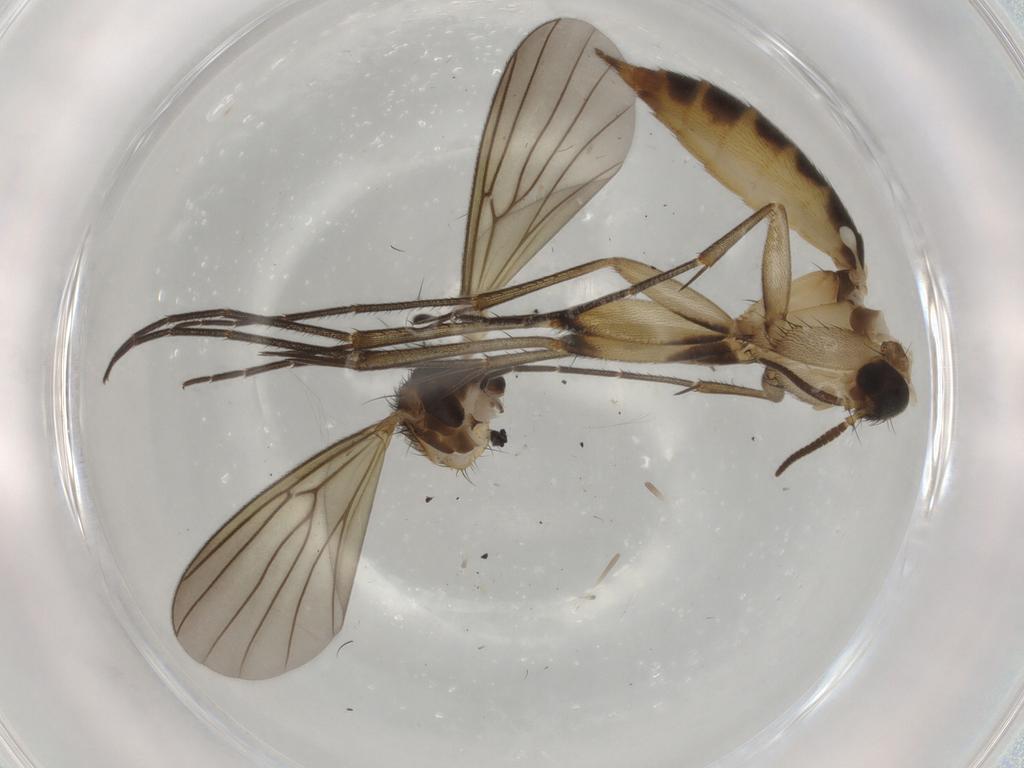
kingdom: Animalia
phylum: Arthropoda
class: Insecta
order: Diptera
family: Mycetophilidae
